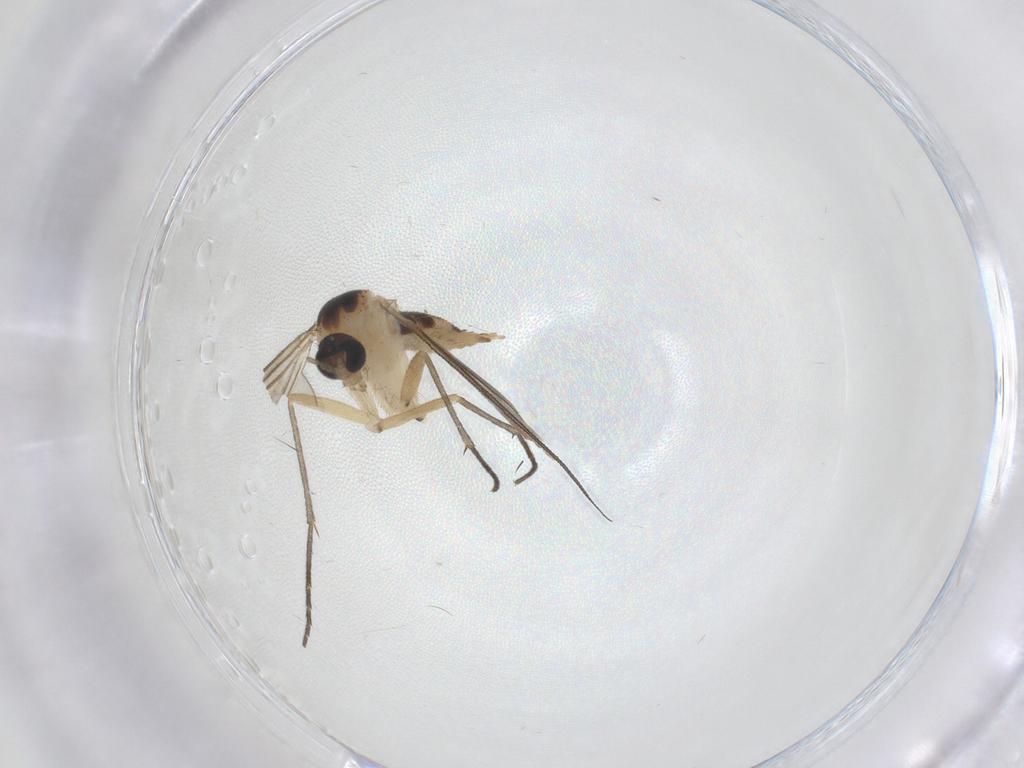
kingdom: Animalia
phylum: Arthropoda
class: Insecta
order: Diptera
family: Sciaridae
